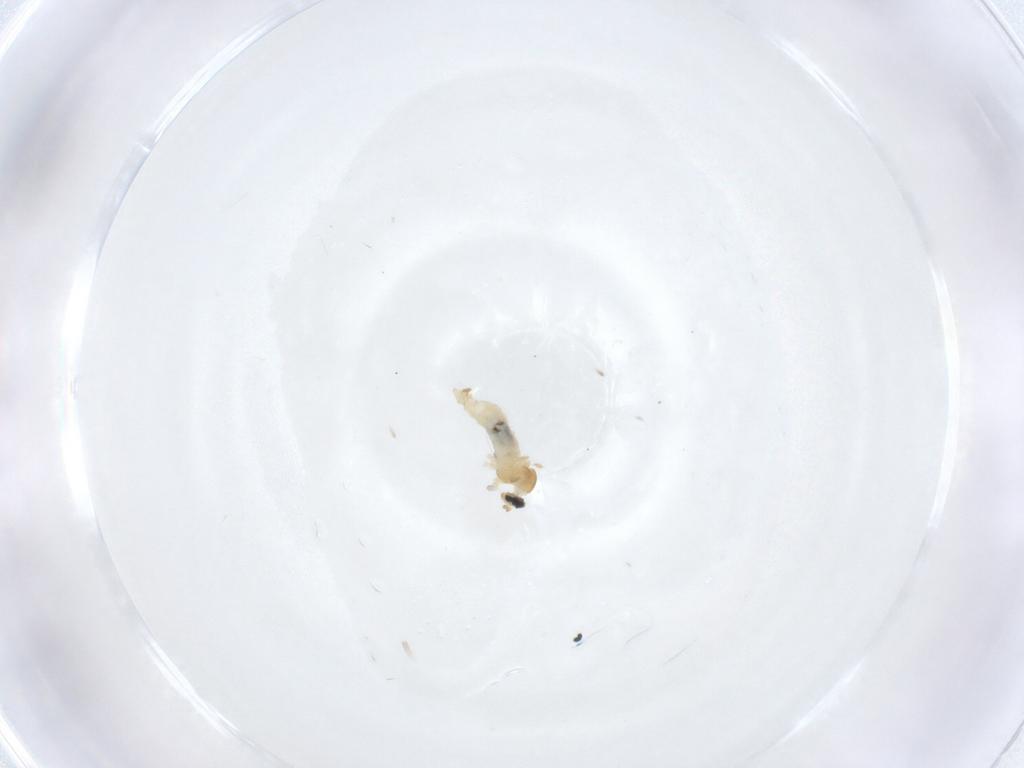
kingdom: Animalia
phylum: Arthropoda
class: Insecta
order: Diptera
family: Cecidomyiidae
